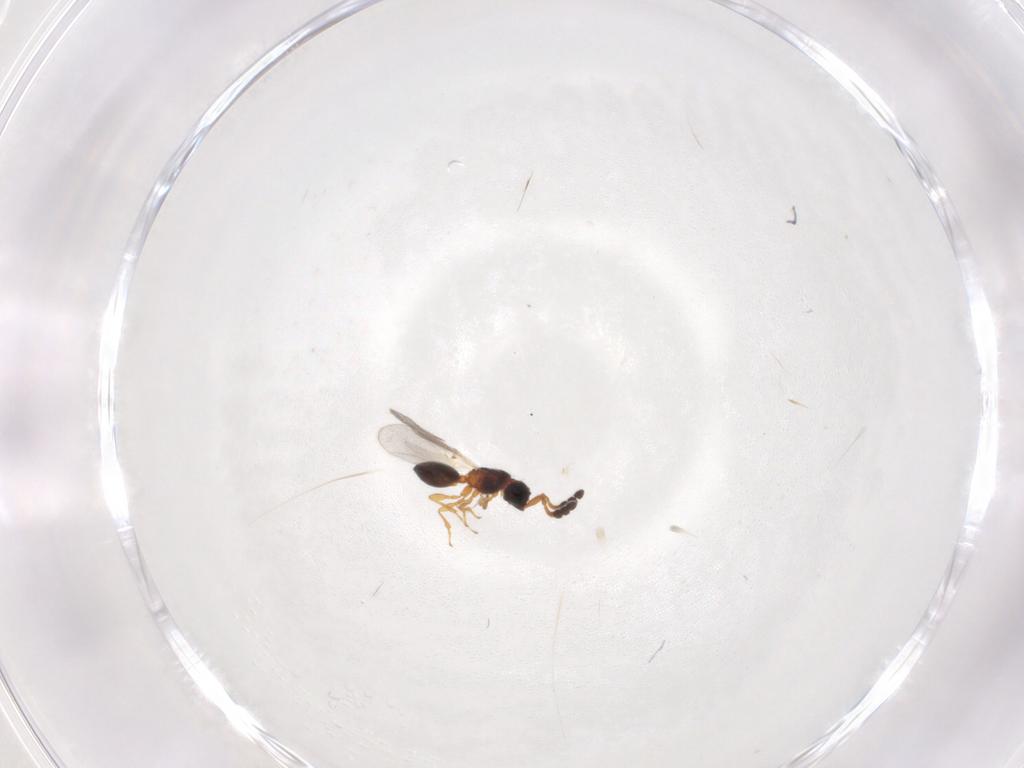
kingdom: Animalia
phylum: Arthropoda
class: Insecta
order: Hymenoptera
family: Diapriidae
